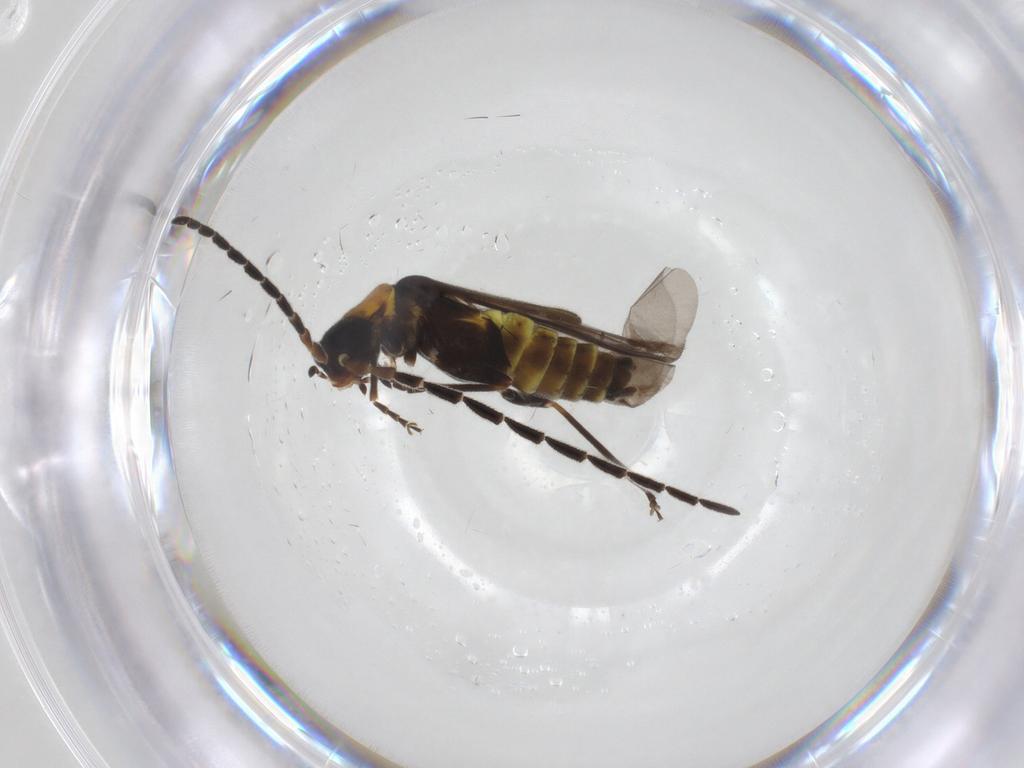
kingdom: Animalia
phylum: Arthropoda
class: Insecta
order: Coleoptera
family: Cantharidae
